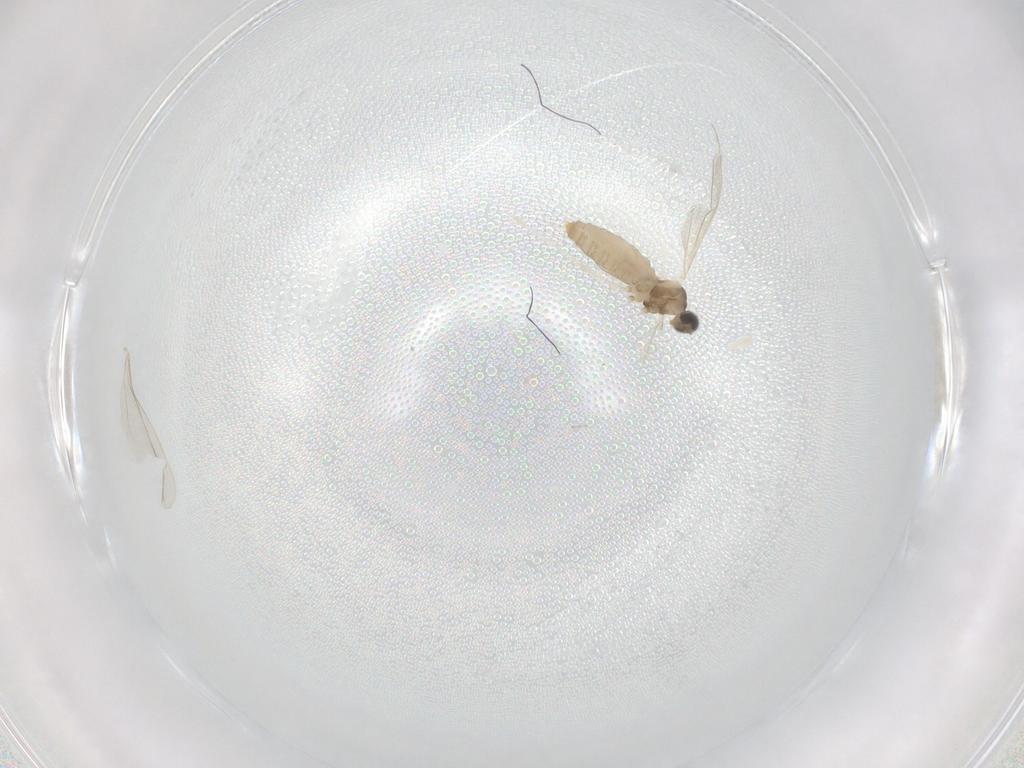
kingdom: Animalia
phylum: Arthropoda
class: Insecta
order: Diptera
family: Cecidomyiidae
